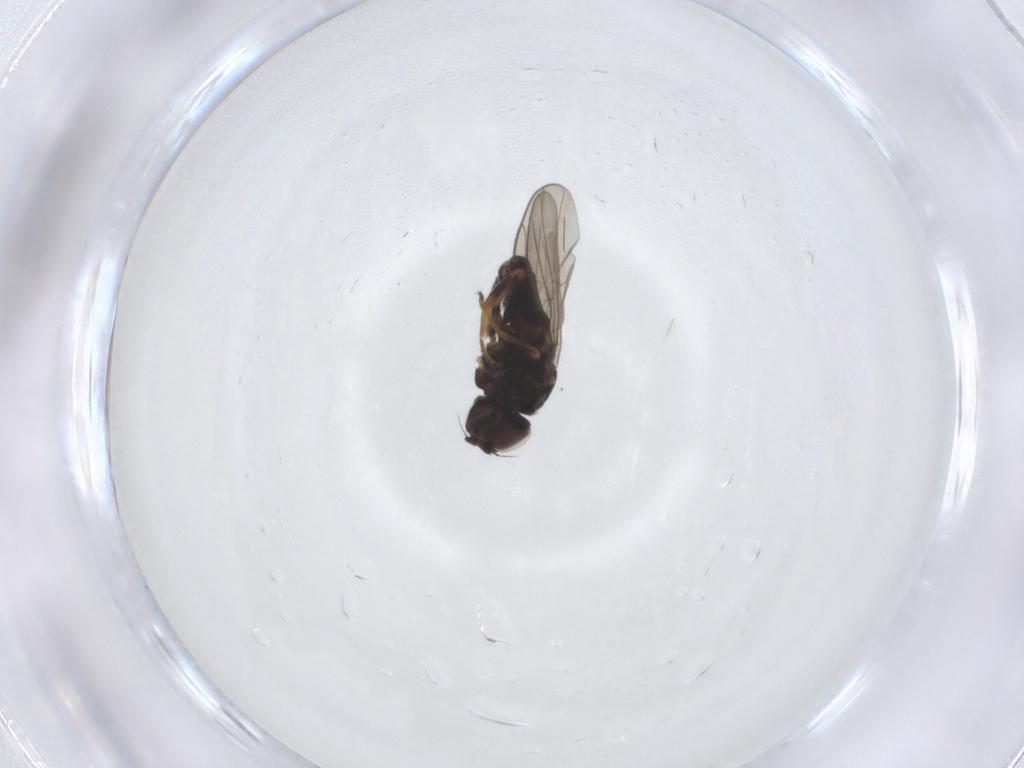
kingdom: Animalia
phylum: Arthropoda
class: Insecta
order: Diptera
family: Chloropidae
